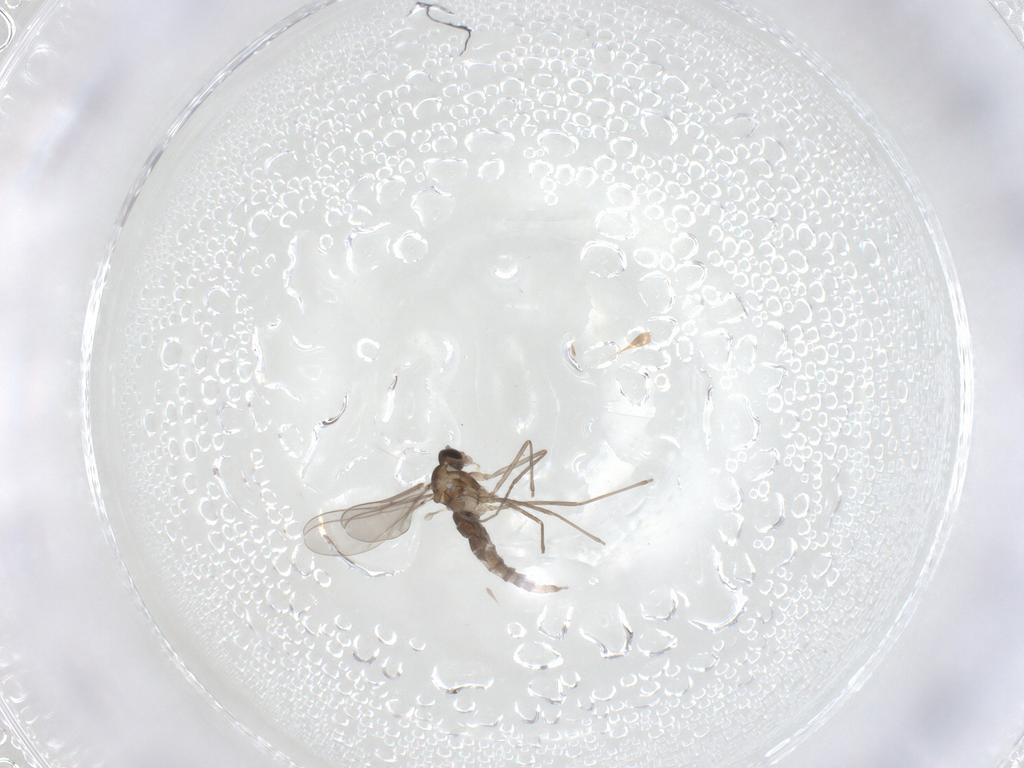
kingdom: Animalia
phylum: Arthropoda
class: Insecta
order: Diptera
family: Cecidomyiidae
